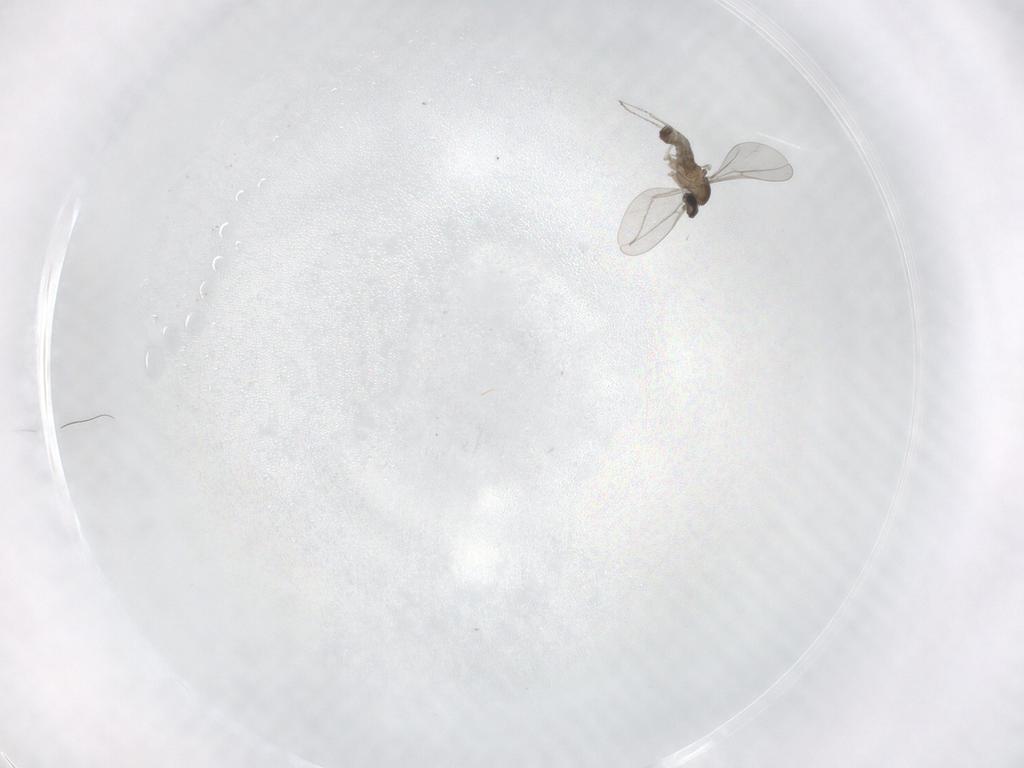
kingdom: Animalia
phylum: Arthropoda
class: Insecta
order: Diptera
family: Cecidomyiidae
